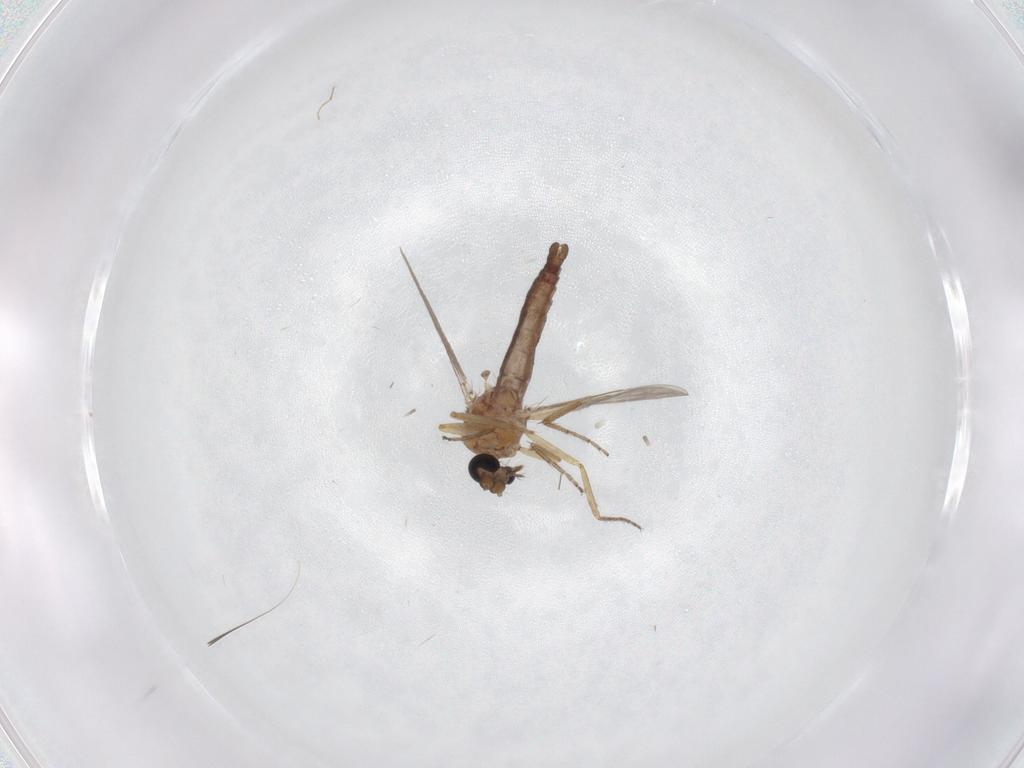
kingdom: Animalia
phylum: Arthropoda
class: Insecta
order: Diptera
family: Ceratopogonidae
